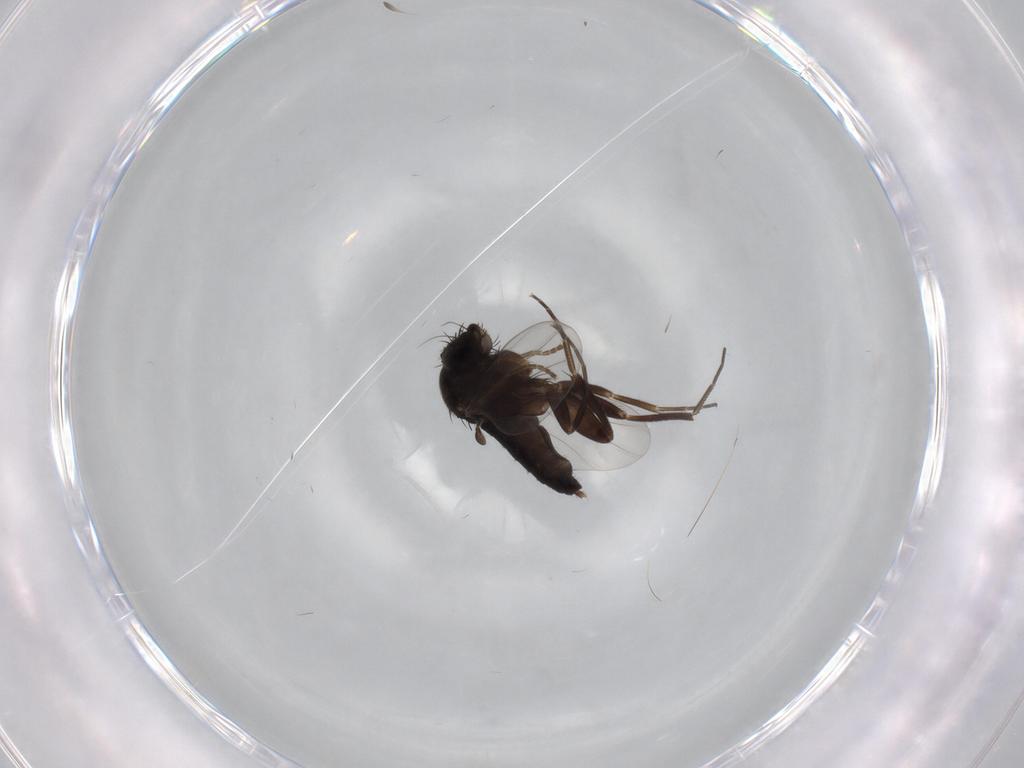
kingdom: Animalia
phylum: Arthropoda
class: Insecta
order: Diptera
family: Phoridae
